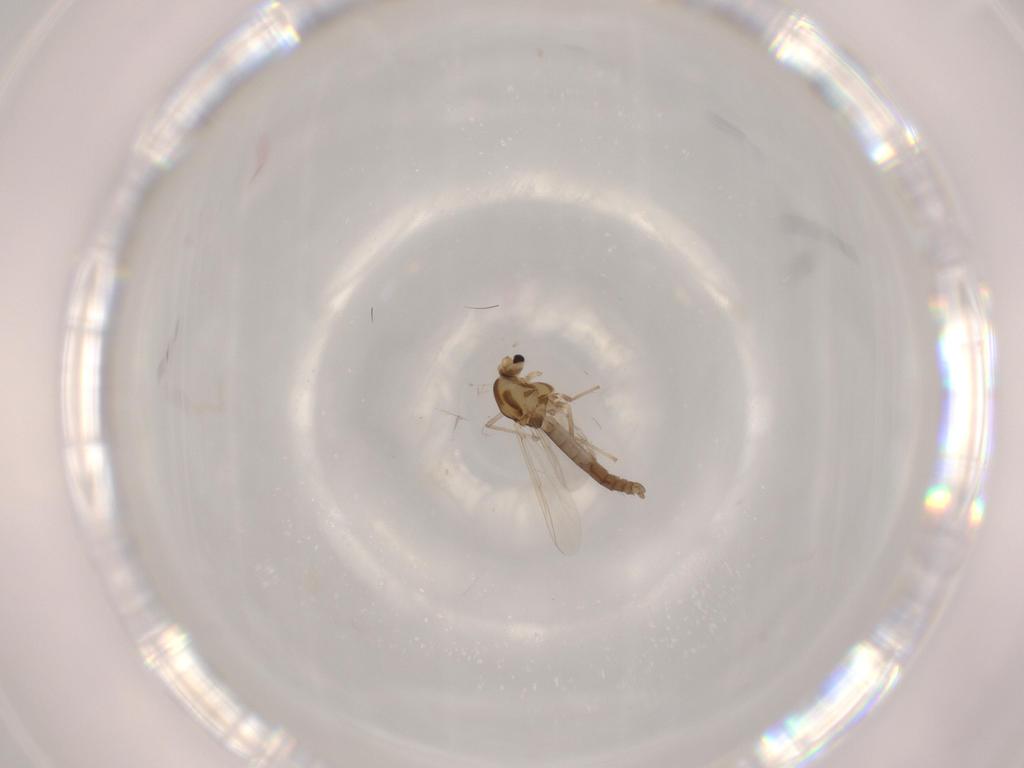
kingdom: Animalia
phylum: Arthropoda
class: Insecta
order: Diptera
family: Chironomidae
